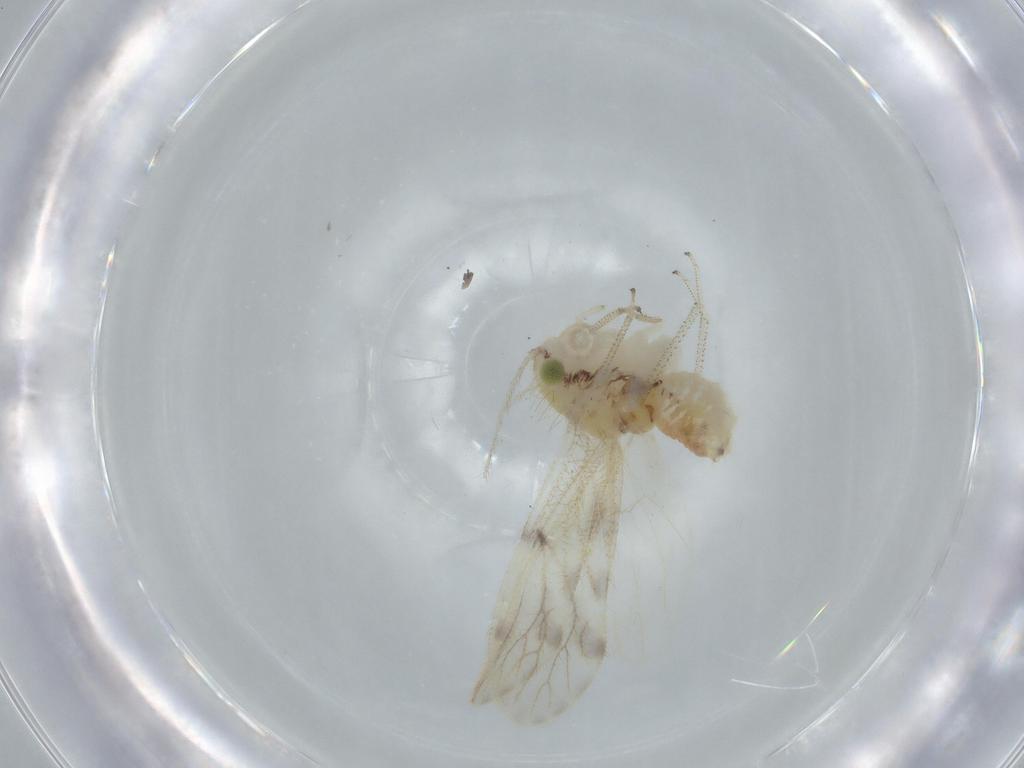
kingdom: Animalia
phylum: Arthropoda
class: Insecta
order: Psocodea
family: Pseudocaeciliidae
